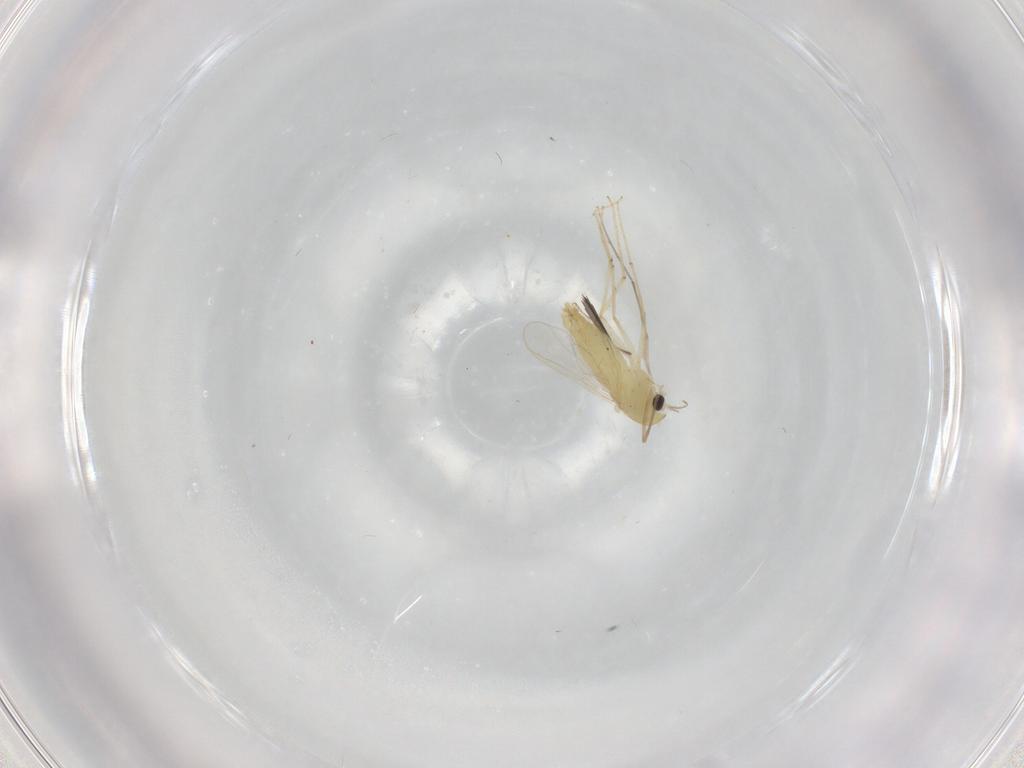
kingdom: Animalia
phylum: Arthropoda
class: Insecta
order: Diptera
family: Chironomidae
